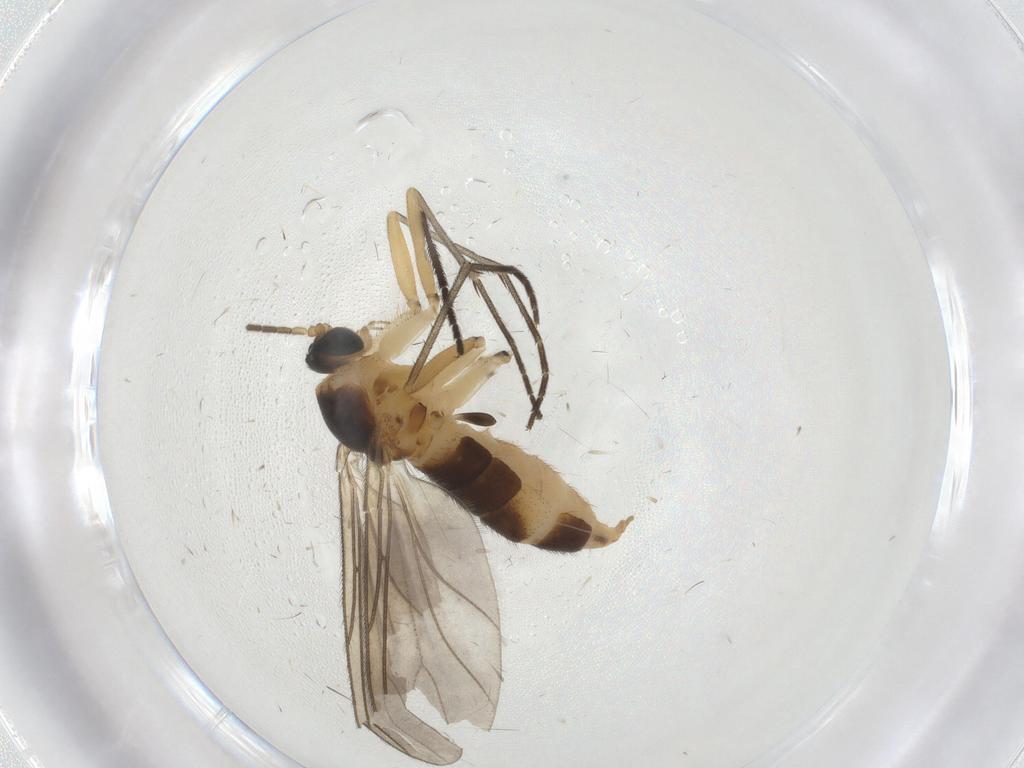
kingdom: Animalia
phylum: Arthropoda
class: Insecta
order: Diptera
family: Sciaridae
